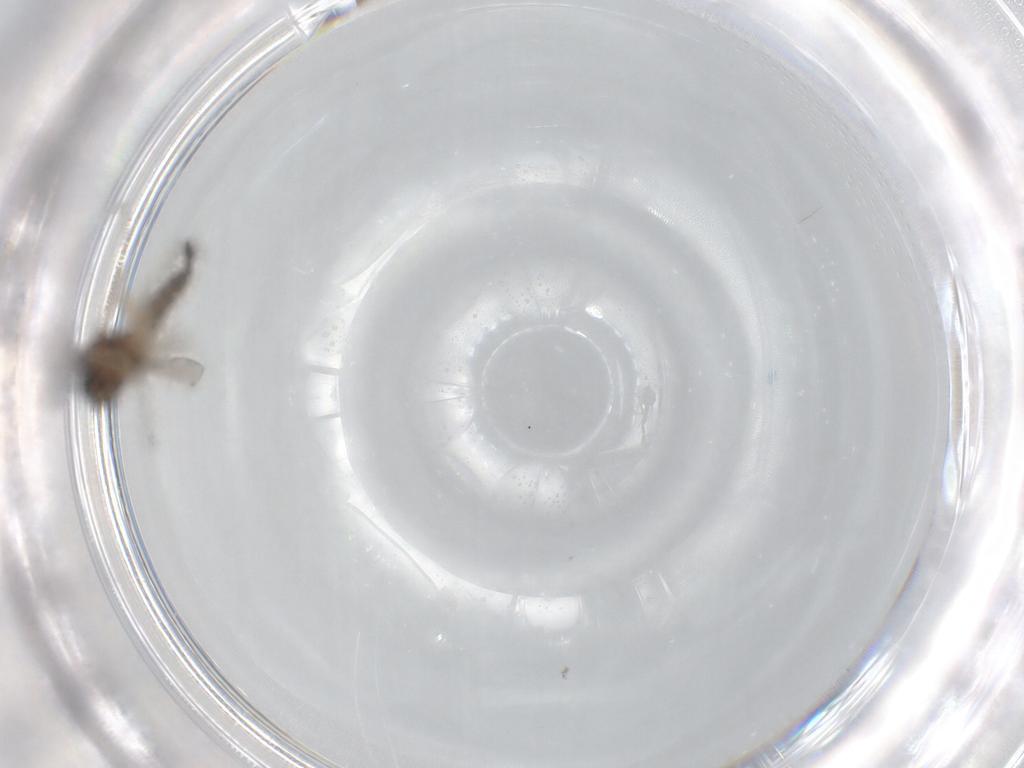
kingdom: Animalia
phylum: Arthropoda
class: Insecta
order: Diptera
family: Ceratopogonidae
